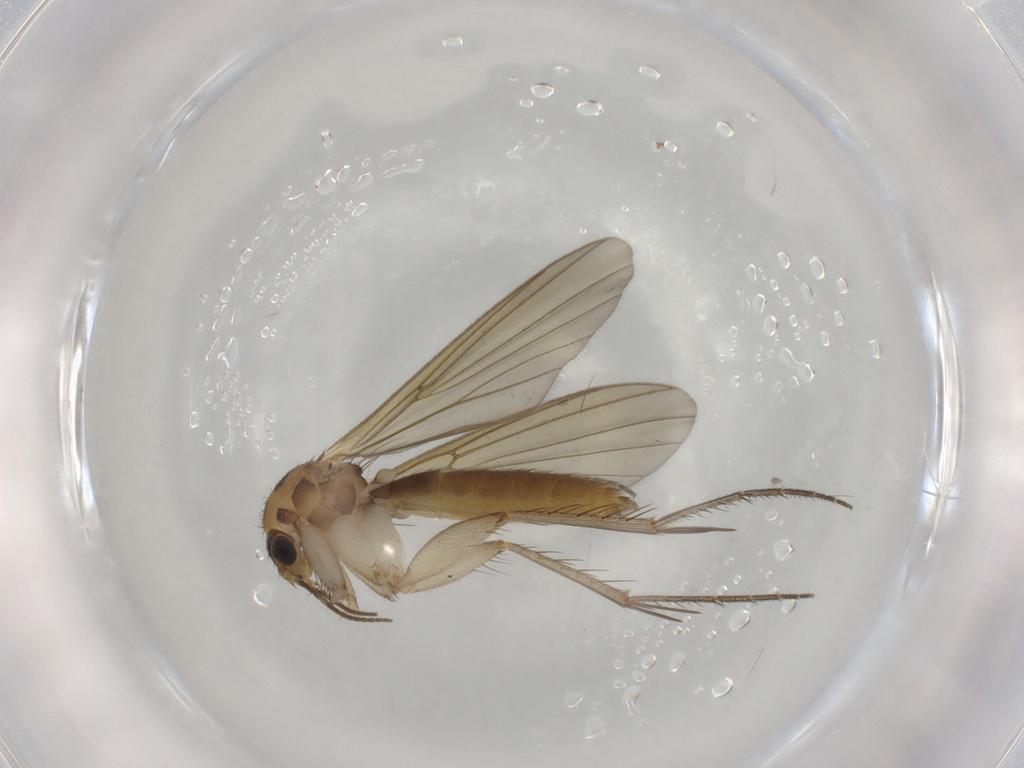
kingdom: Animalia
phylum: Arthropoda
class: Insecta
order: Diptera
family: Mycetophilidae
